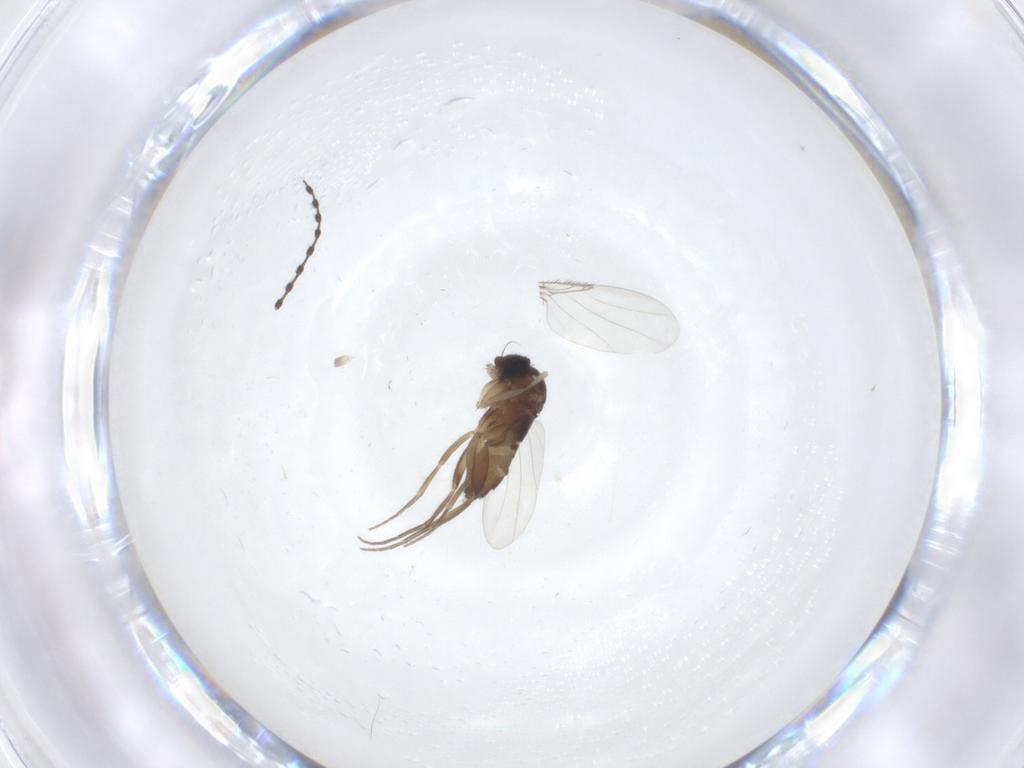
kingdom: Animalia
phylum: Arthropoda
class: Insecta
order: Diptera
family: Phoridae
